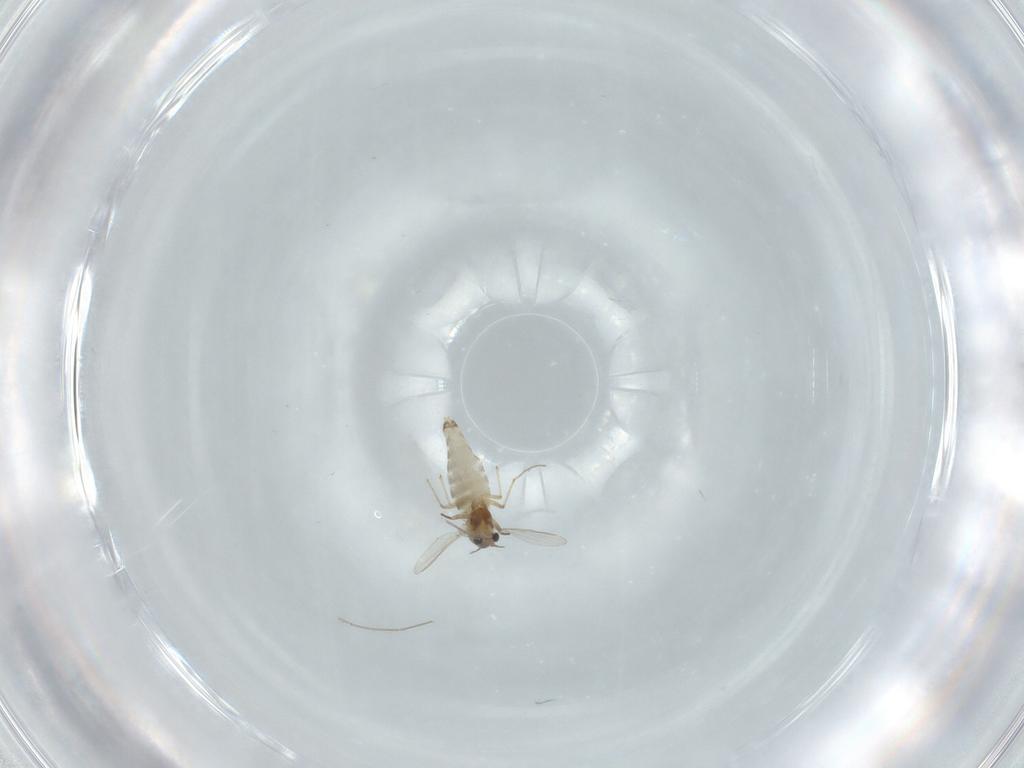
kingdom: Animalia
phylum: Arthropoda
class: Insecta
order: Diptera
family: Chironomidae
